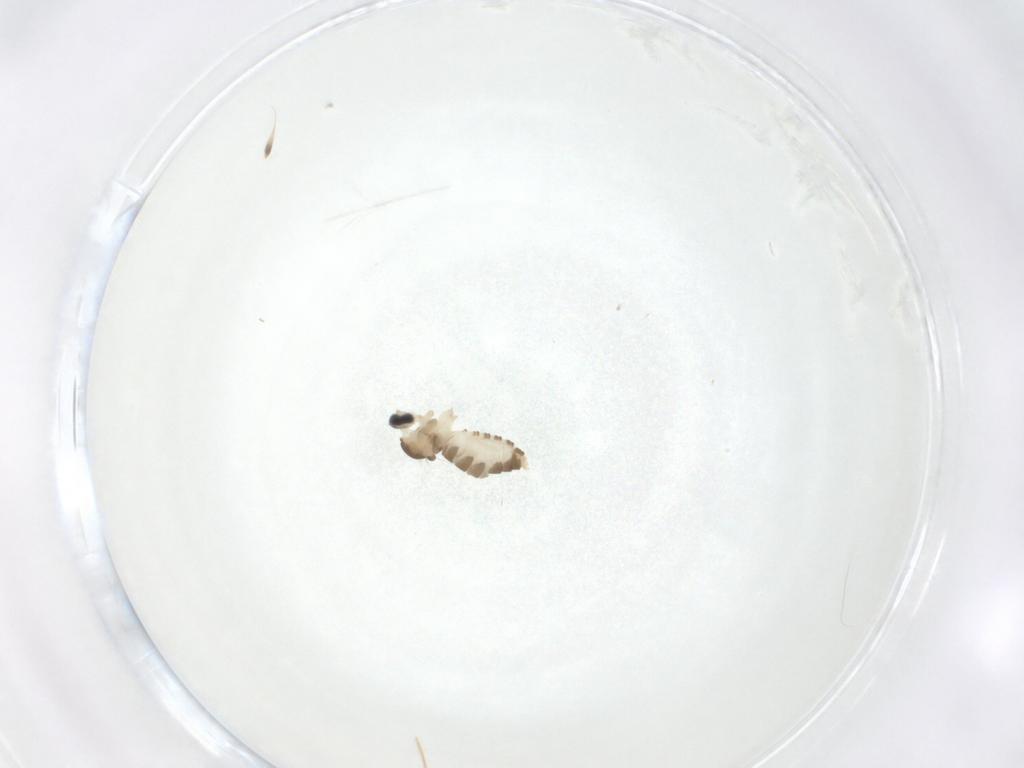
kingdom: Animalia
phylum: Arthropoda
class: Insecta
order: Diptera
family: Cecidomyiidae
